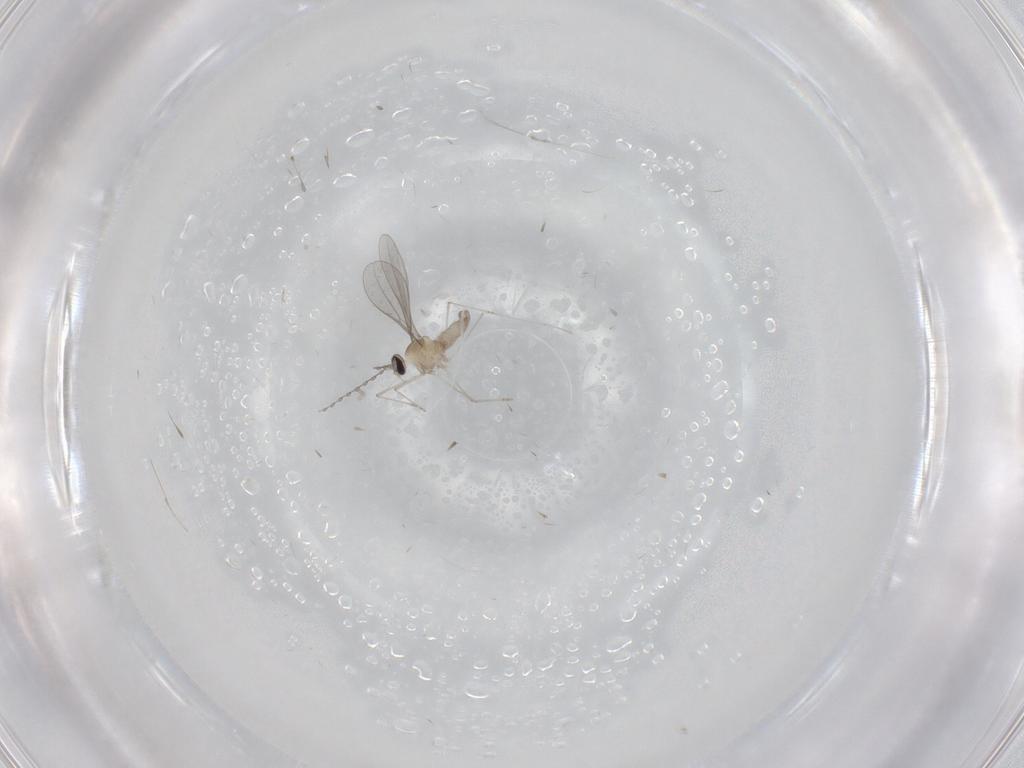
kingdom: Animalia
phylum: Arthropoda
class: Insecta
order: Diptera
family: Cecidomyiidae
